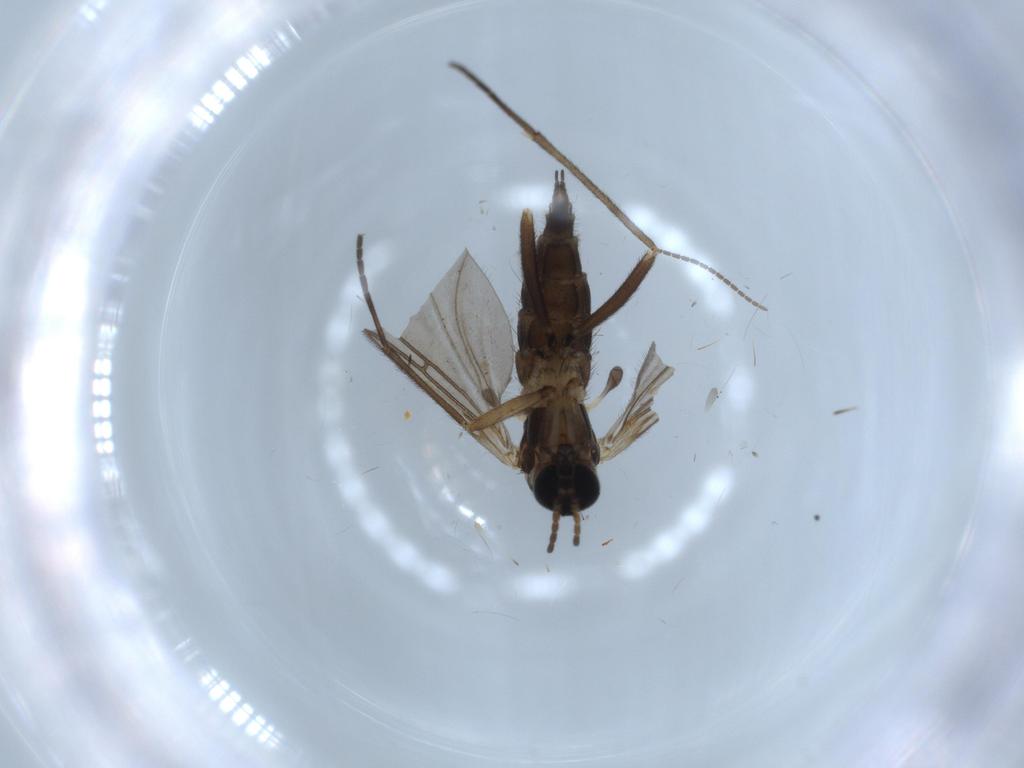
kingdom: Animalia
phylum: Arthropoda
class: Insecta
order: Diptera
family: Sciaridae
